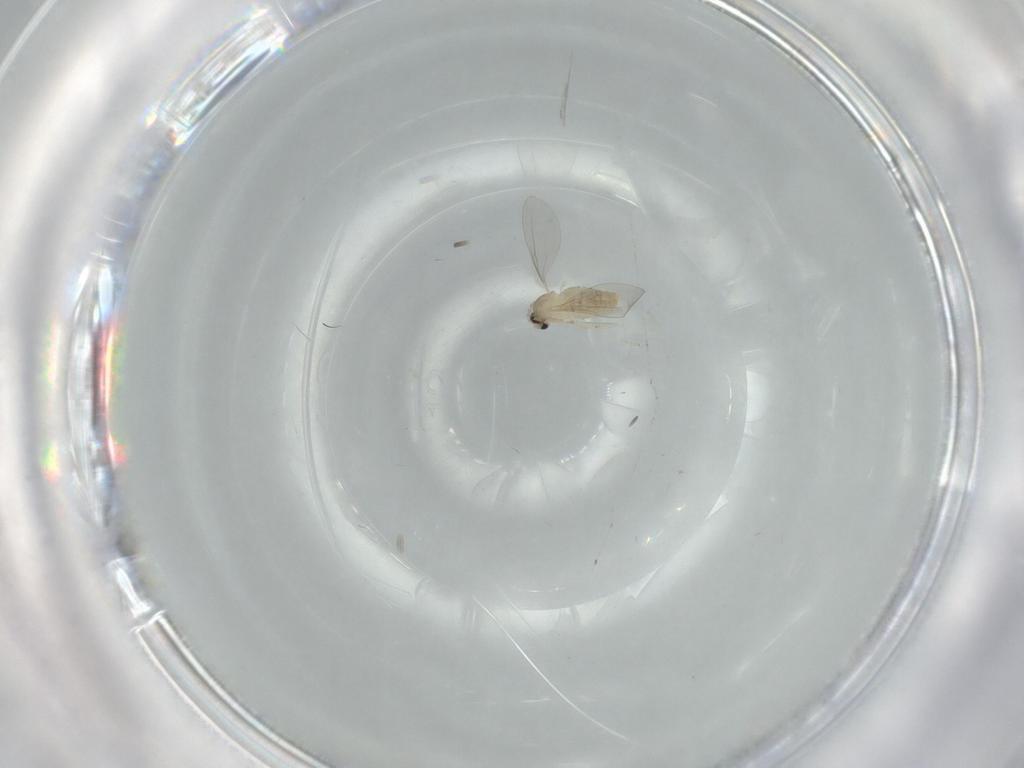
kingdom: Animalia
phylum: Arthropoda
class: Insecta
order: Diptera
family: Cecidomyiidae
